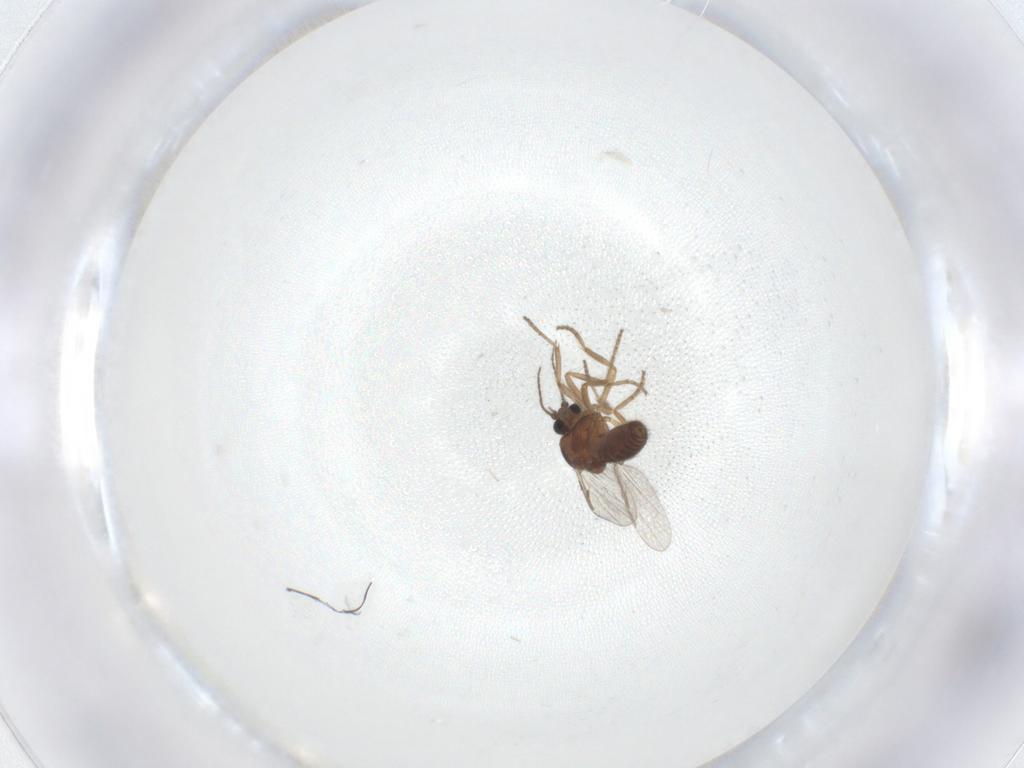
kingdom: Animalia
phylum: Arthropoda
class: Insecta
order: Diptera
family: Ceratopogonidae
